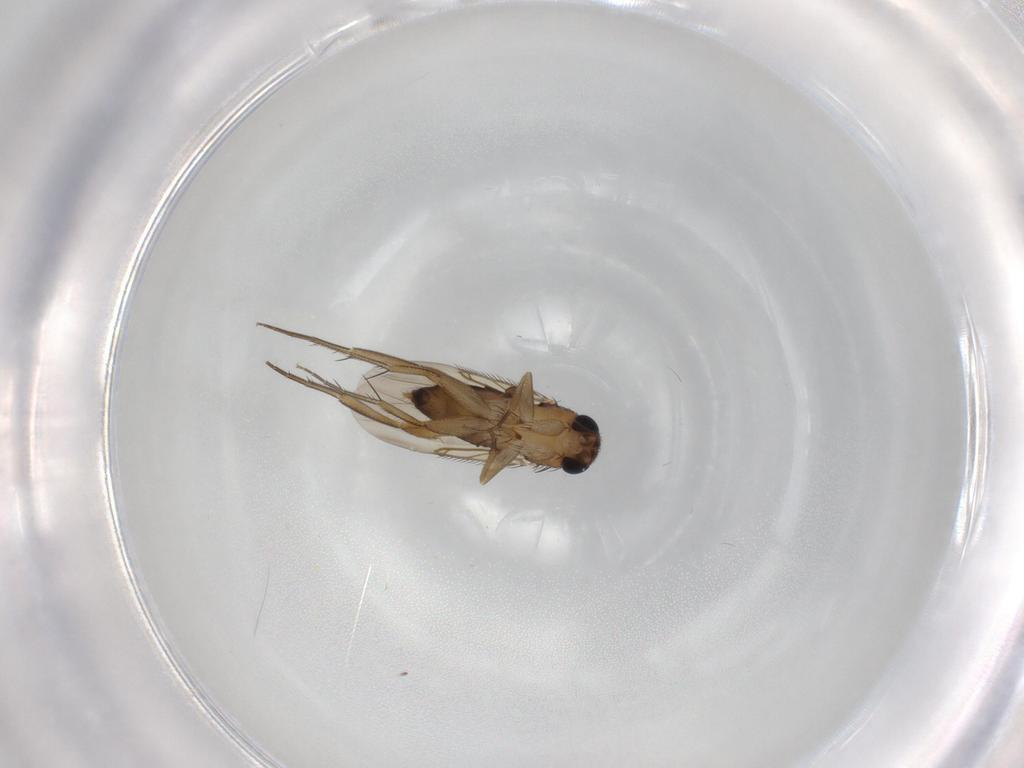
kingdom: Animalia
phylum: Arthropoda
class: Insecta
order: Diptera
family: Phoridae
